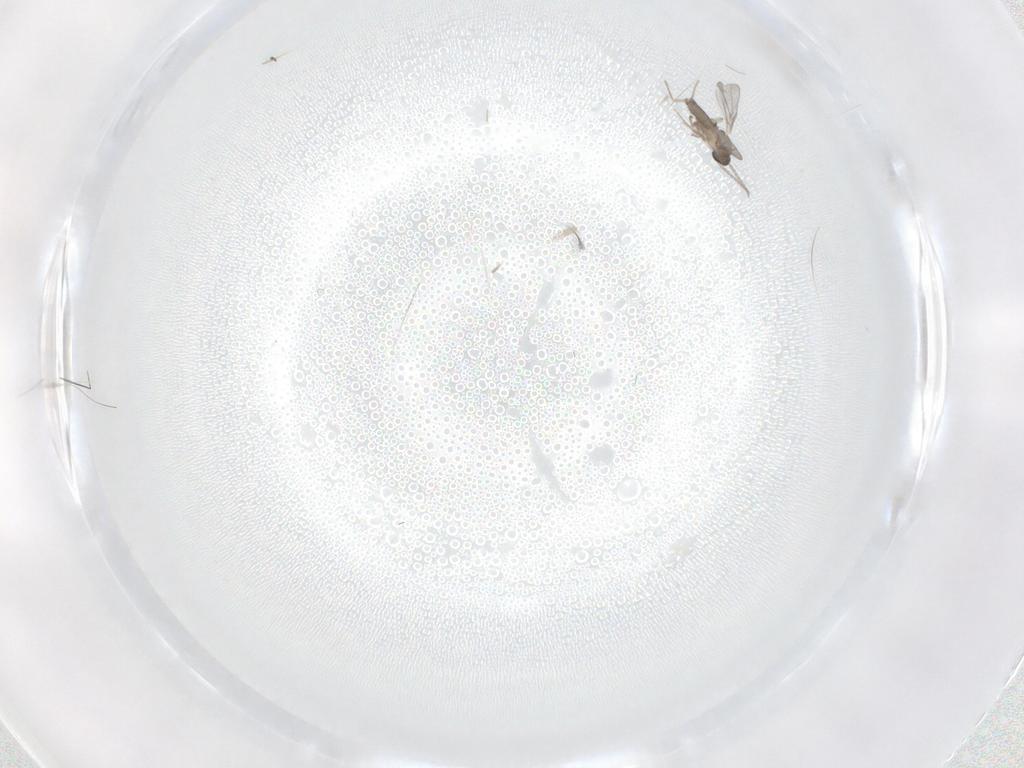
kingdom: Animalia
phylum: Arthropoda
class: Insecta
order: Diptera
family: Cecidomyiidae
